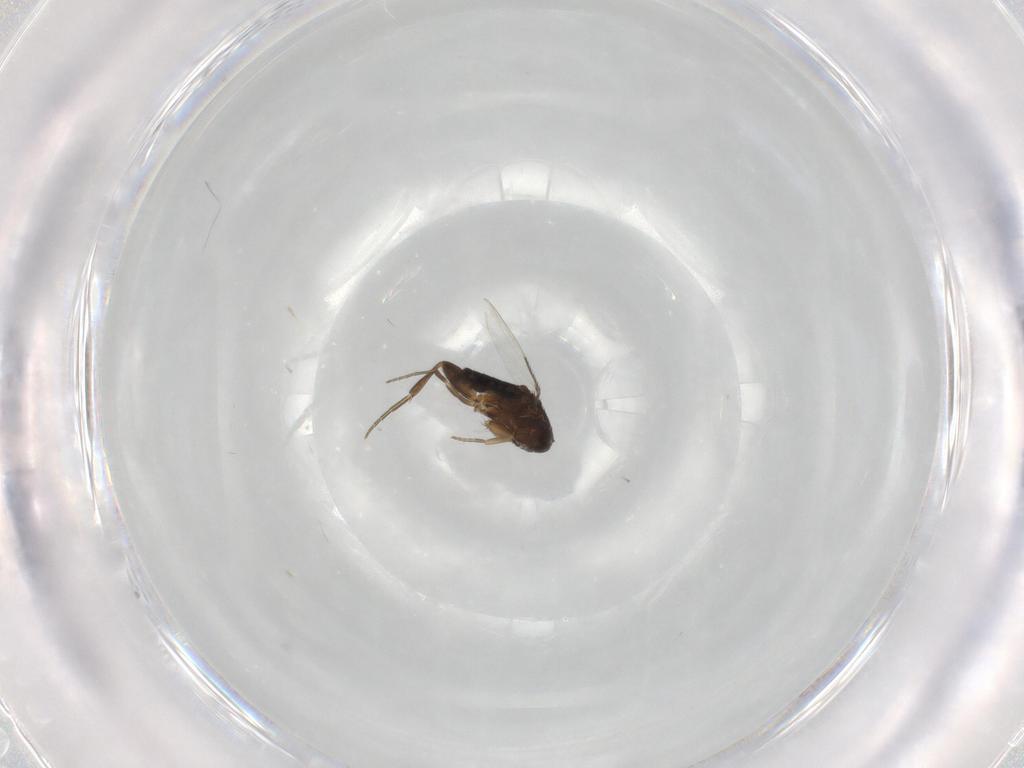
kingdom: Animalia
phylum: Arthropoda
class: Insecta
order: Diptera
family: Phoridae
